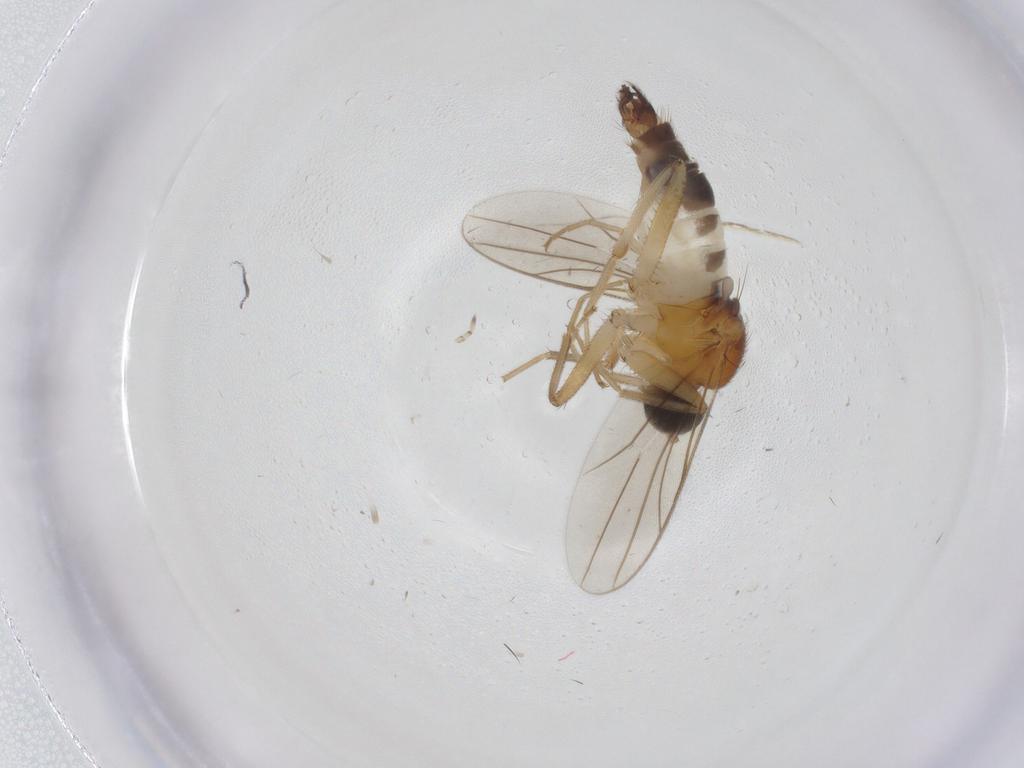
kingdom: Animalia
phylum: Arthropoda
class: Insecta
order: Diptera
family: Hybotidae
